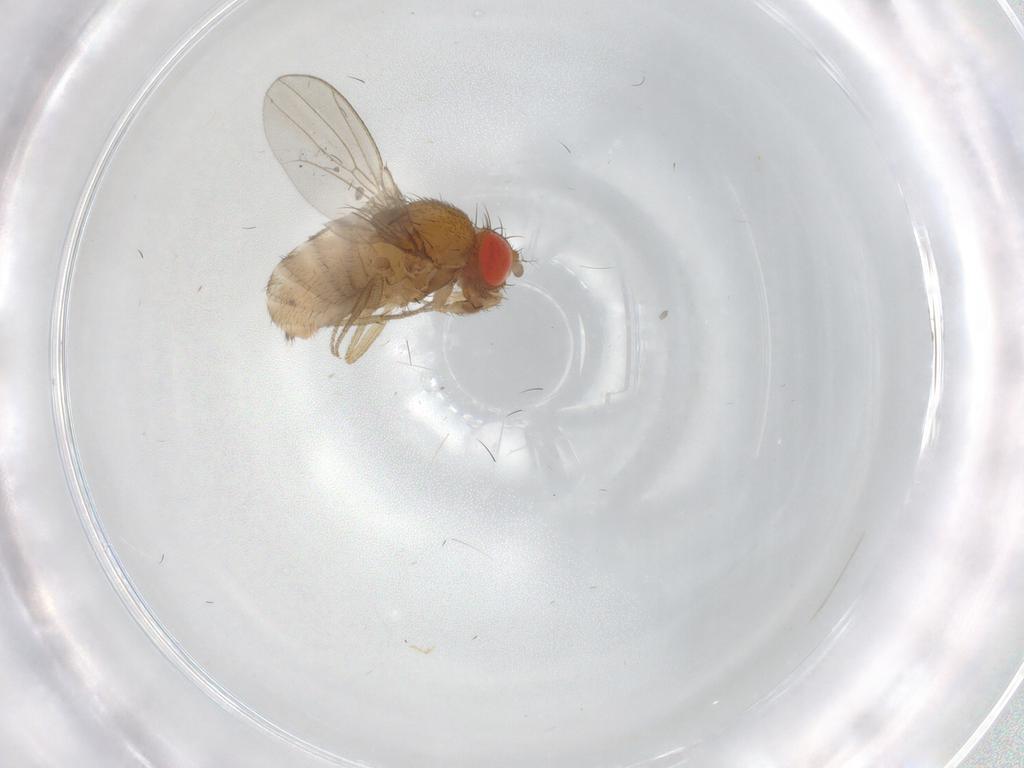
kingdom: Animalia
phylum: Arthropoda
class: Insecta
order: Diptera
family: Drosophilidae
